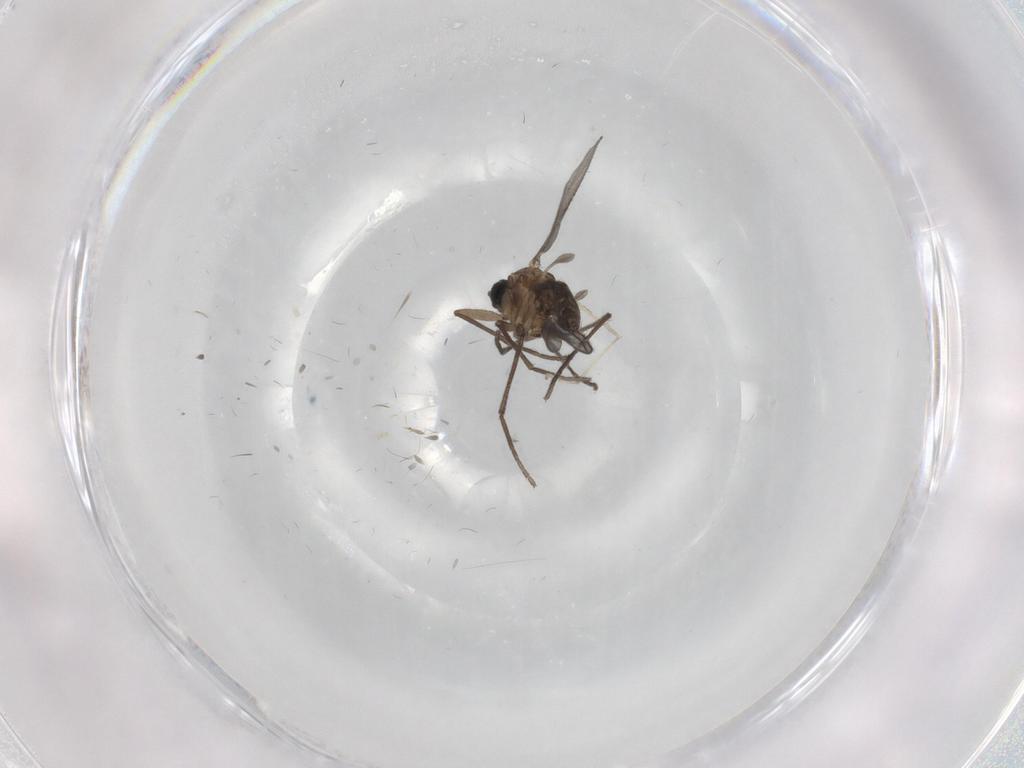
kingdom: Animalia
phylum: Arthropoda
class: Insecta
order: Diptera
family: Sciaridae
